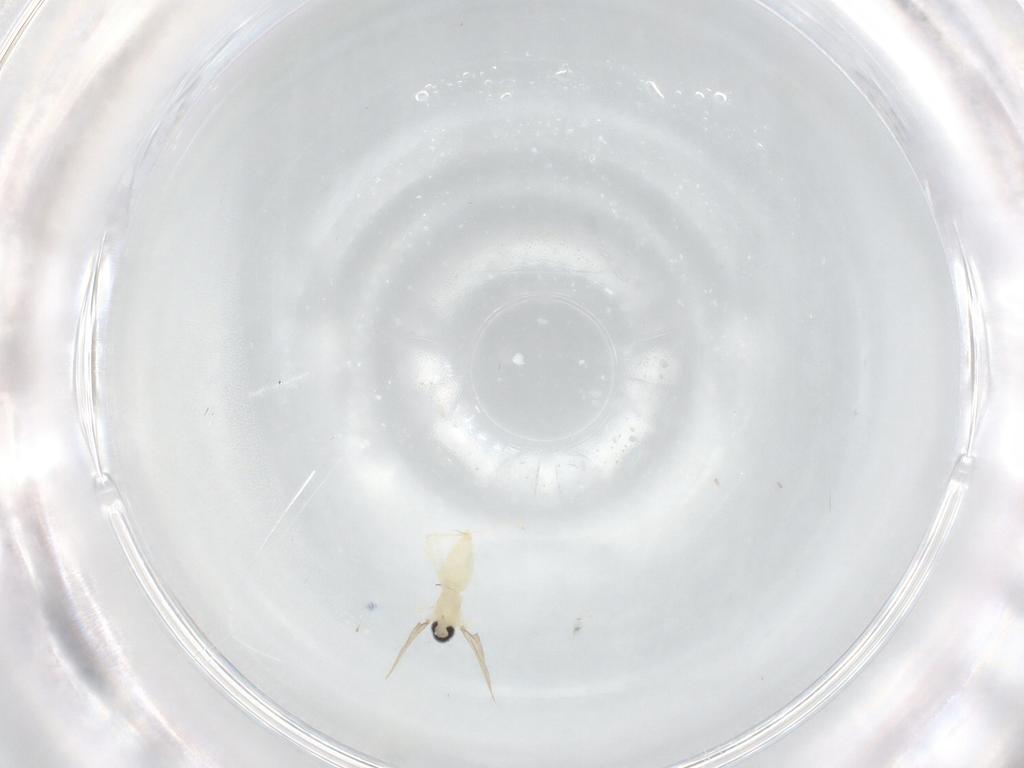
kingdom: Animalia
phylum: Arthropoda
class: Insecta
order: Diptera
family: Cecidomyiidae
